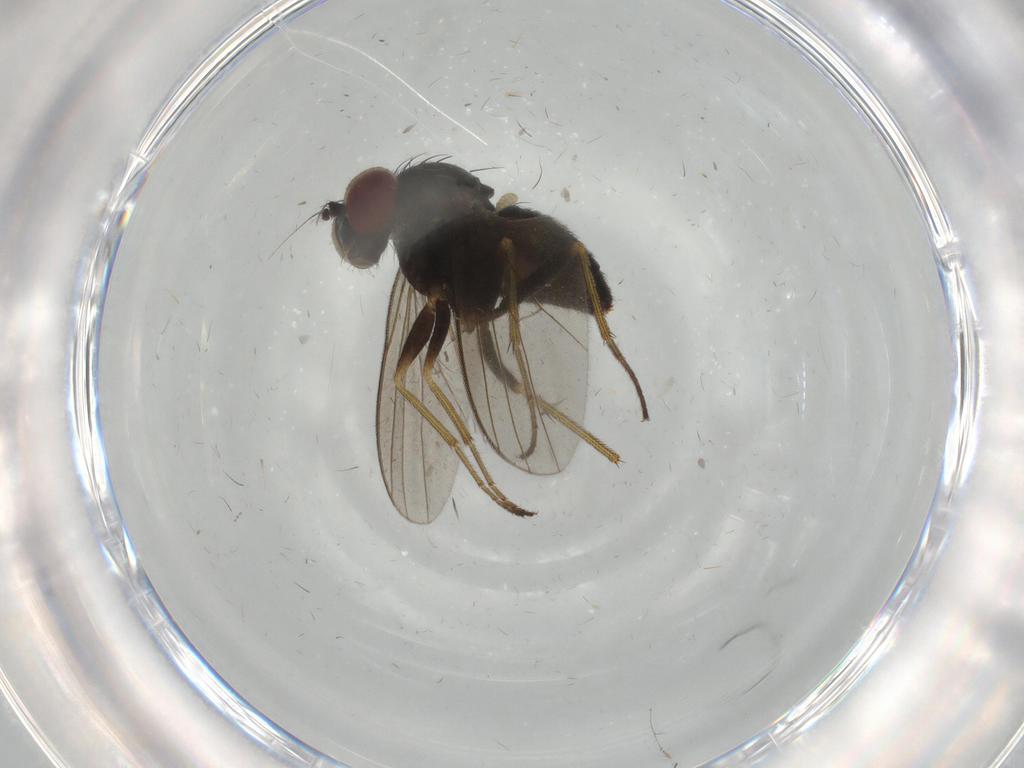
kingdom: Animalia
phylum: Arthropoda
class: Insecta
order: Diptera
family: Dolichopodidae
